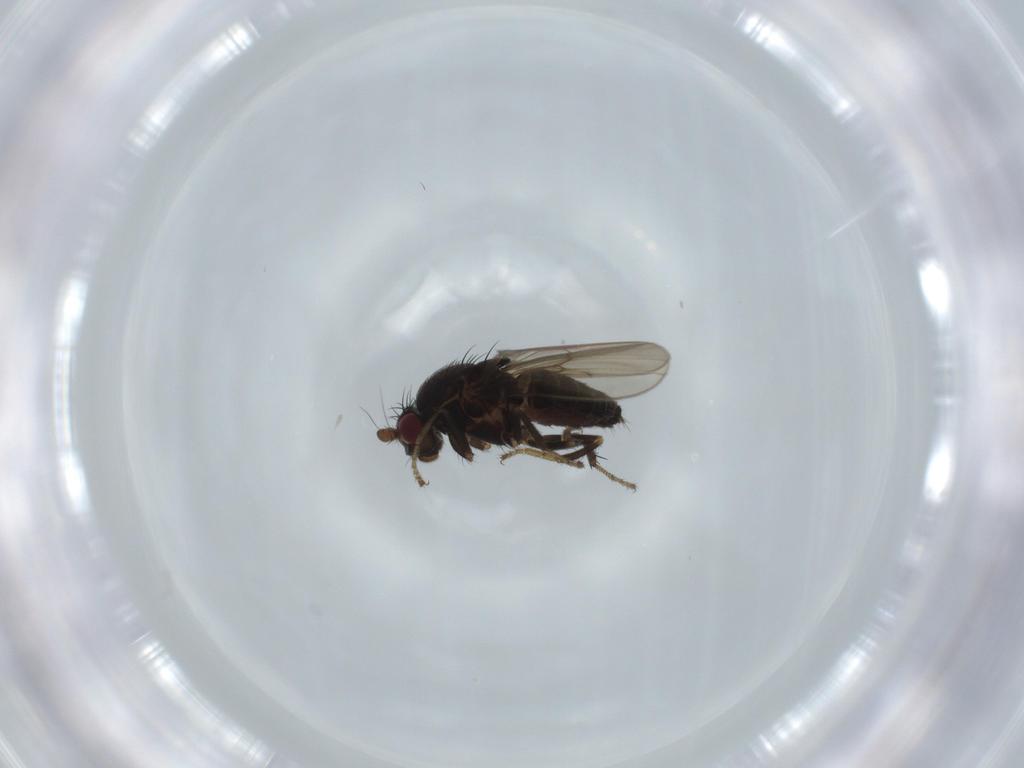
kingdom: Animalia
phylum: Arthropoda
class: Insecta
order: Diptera
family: Sphaeroceridae
